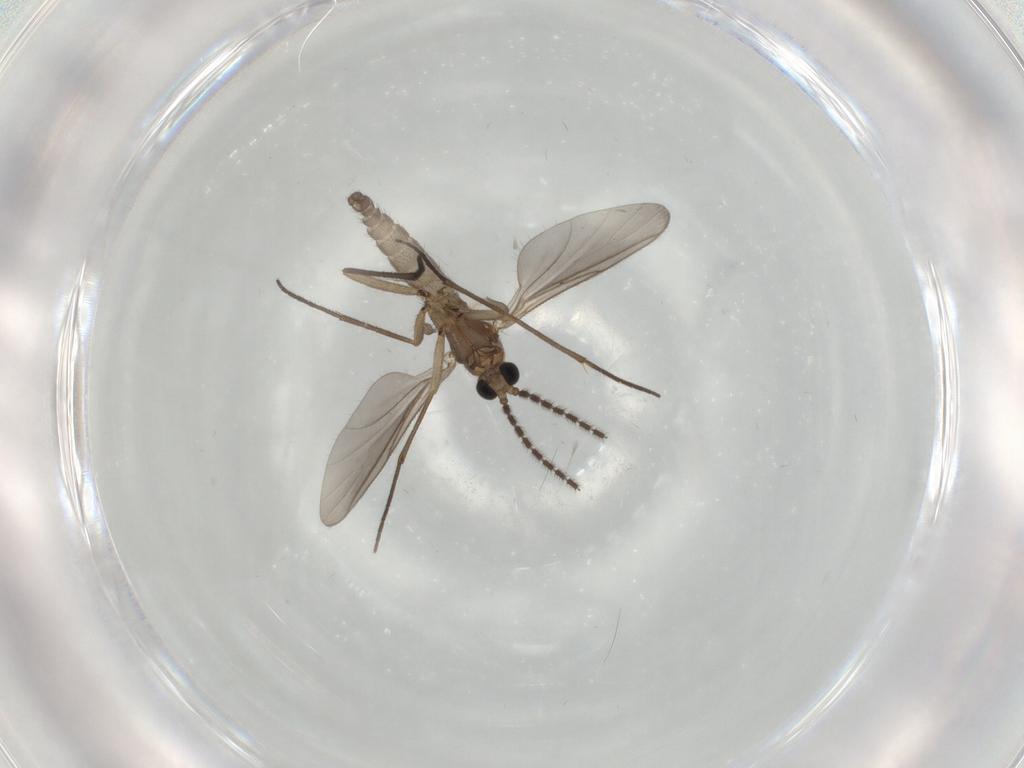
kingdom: Animalia
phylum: Arthropoda
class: Insecta
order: Diptera
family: Sciaridae
